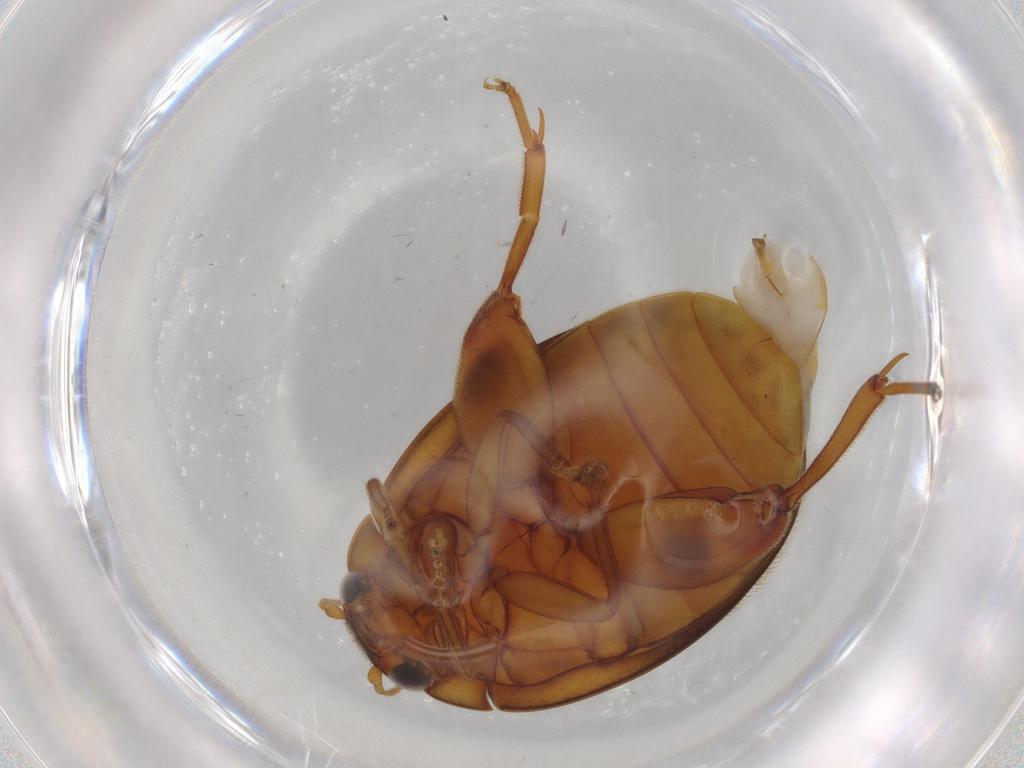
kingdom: Animalia
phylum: Arthropoda
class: Insecta
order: Coleoptera
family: Scirtidae
